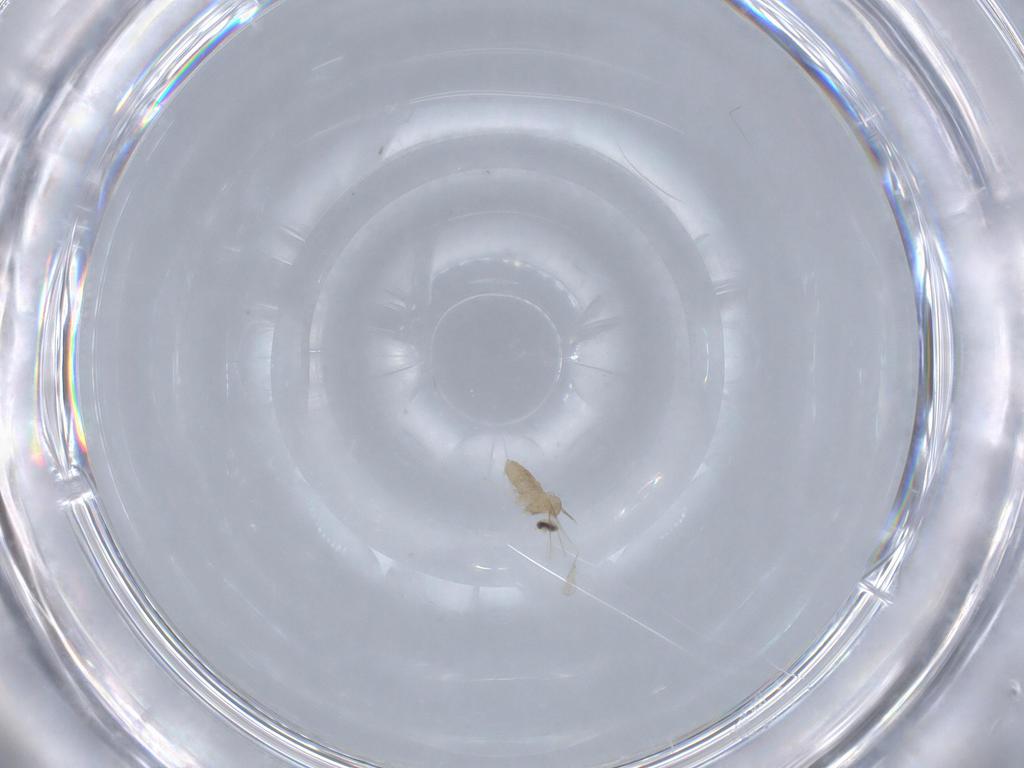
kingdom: Animalia
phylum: Arthropoda
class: Insecta
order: Diptera
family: Cecidomyiidae
